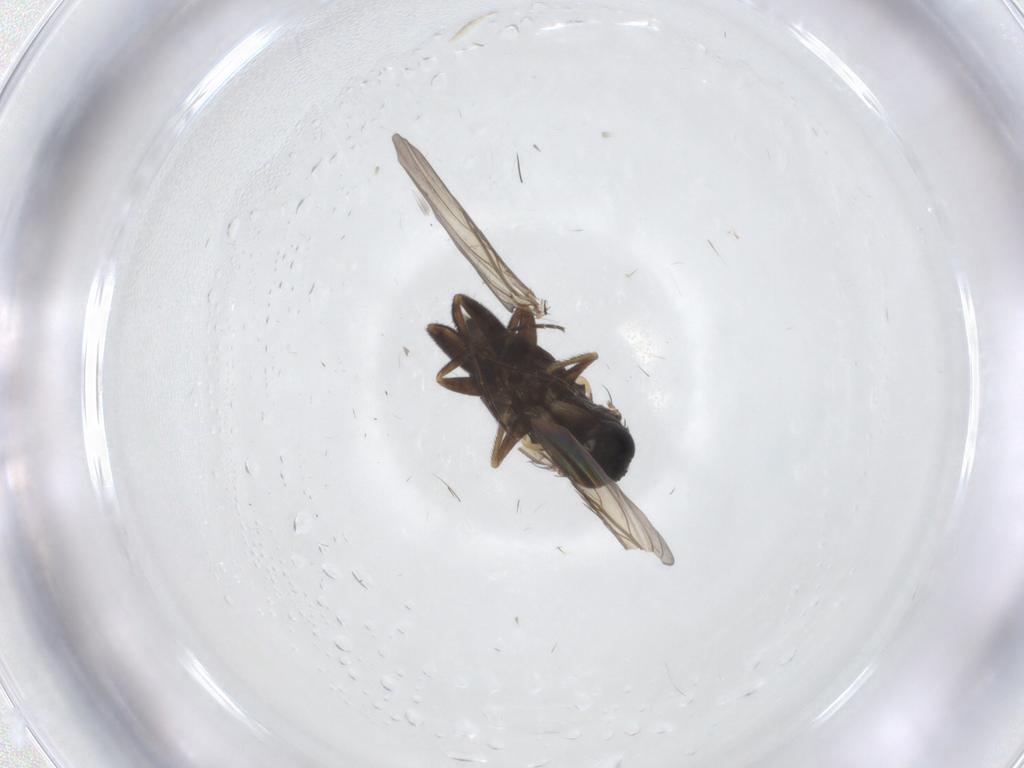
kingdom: Animalia
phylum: Arthropoda
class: Insecta
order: Diptera
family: Phoridae
